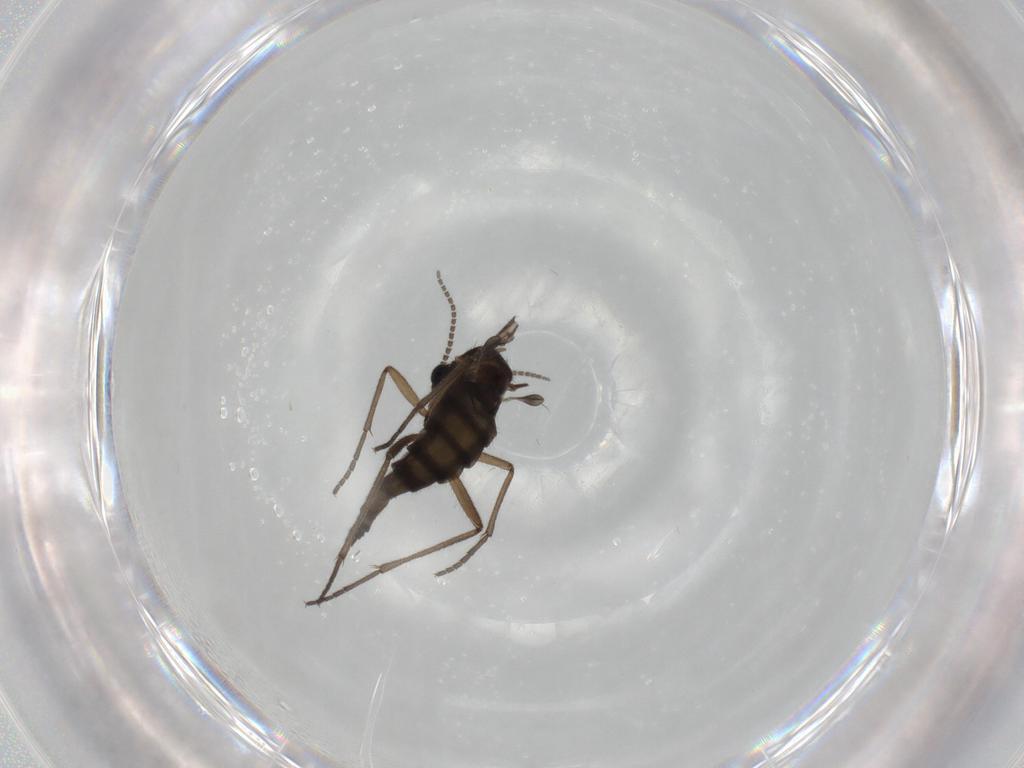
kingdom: Animalia
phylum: Arthropoda
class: Insecta
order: Diptera
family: Sciaridae
